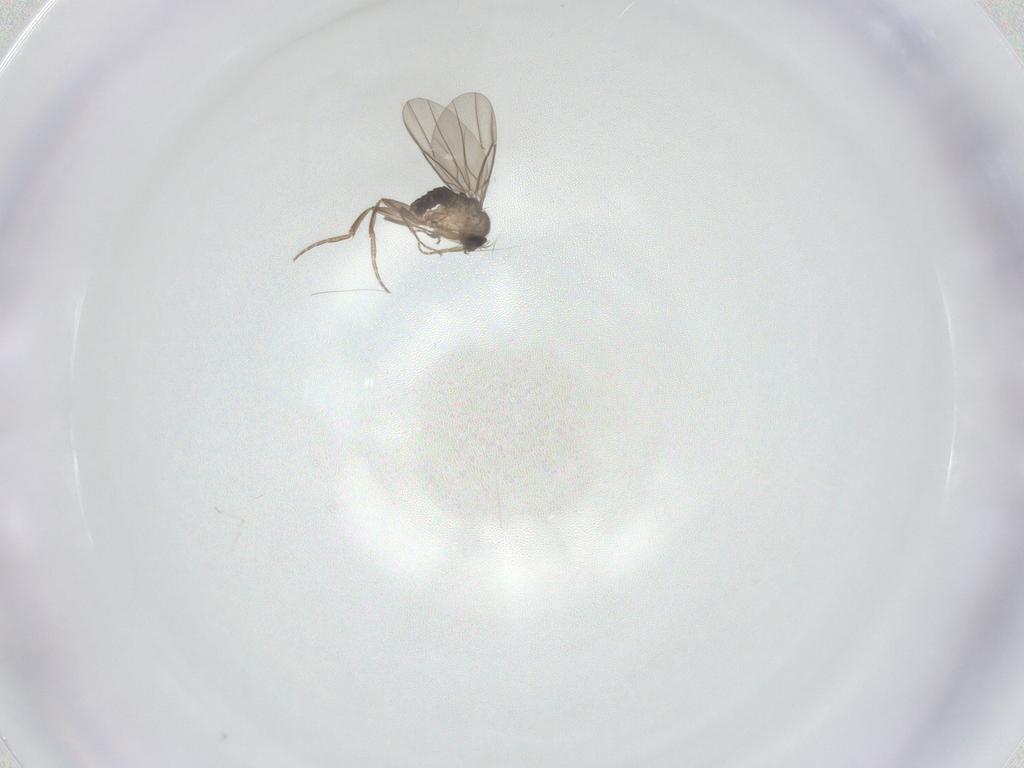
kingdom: Animalia
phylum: Arthropoda
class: Insecta
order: Diptera
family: Cecidomyiidae
